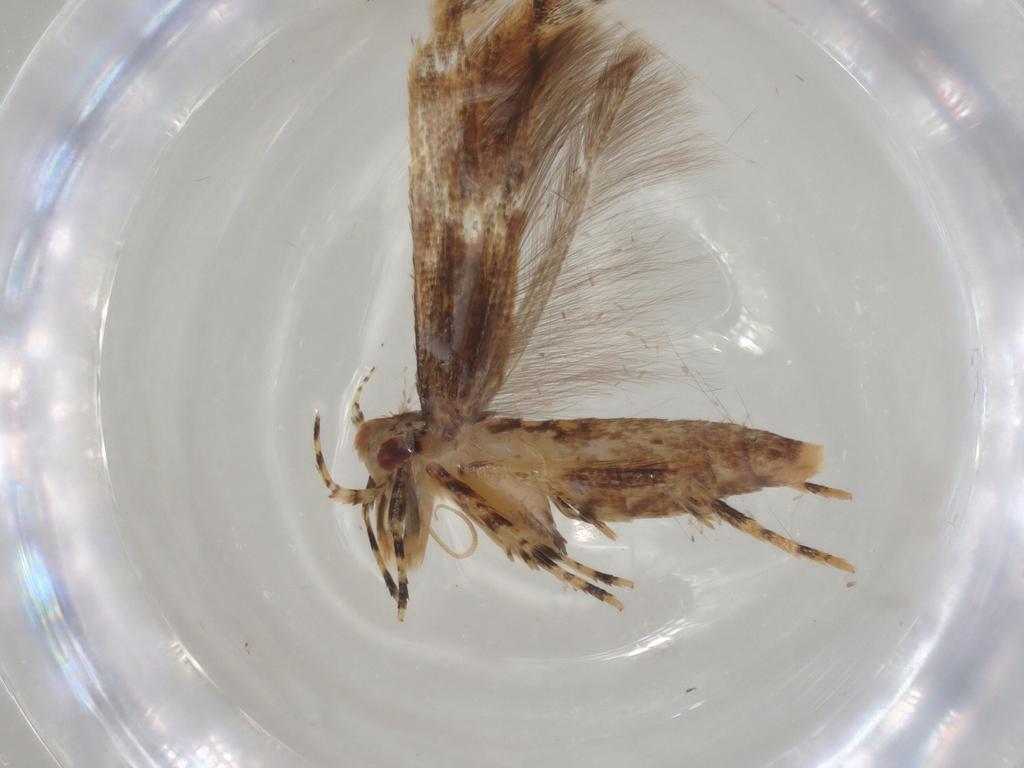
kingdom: Animalia
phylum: Arthropoda
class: Insecta
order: Lepidoptera
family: Cosmopterigidae
